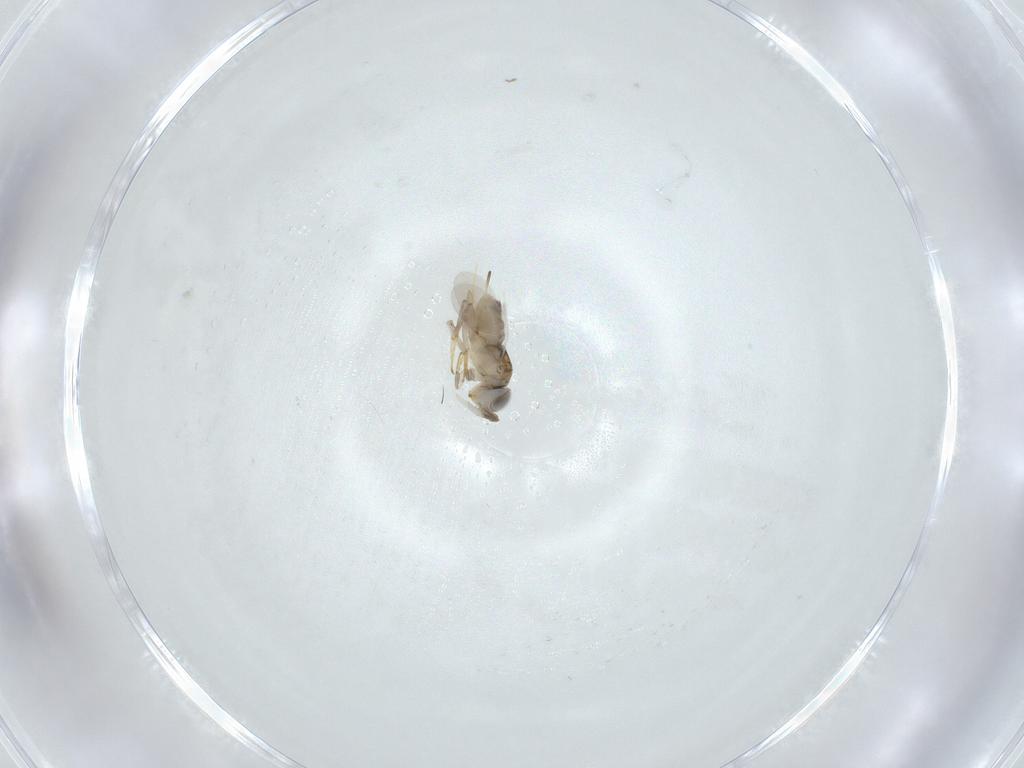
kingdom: Animalia
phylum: Arthropoda
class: Insecta
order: Hymenoptera
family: Encyrtidae
